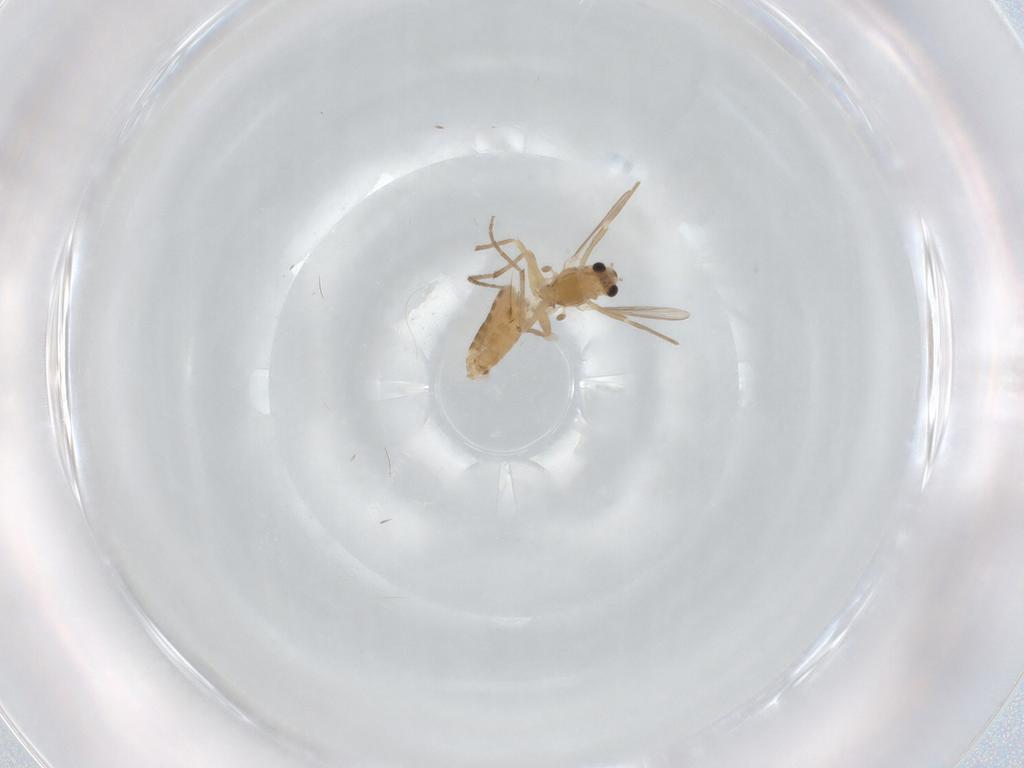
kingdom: Animalia
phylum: Arthropoda
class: Insecta
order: Diptera
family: Chironomidae
